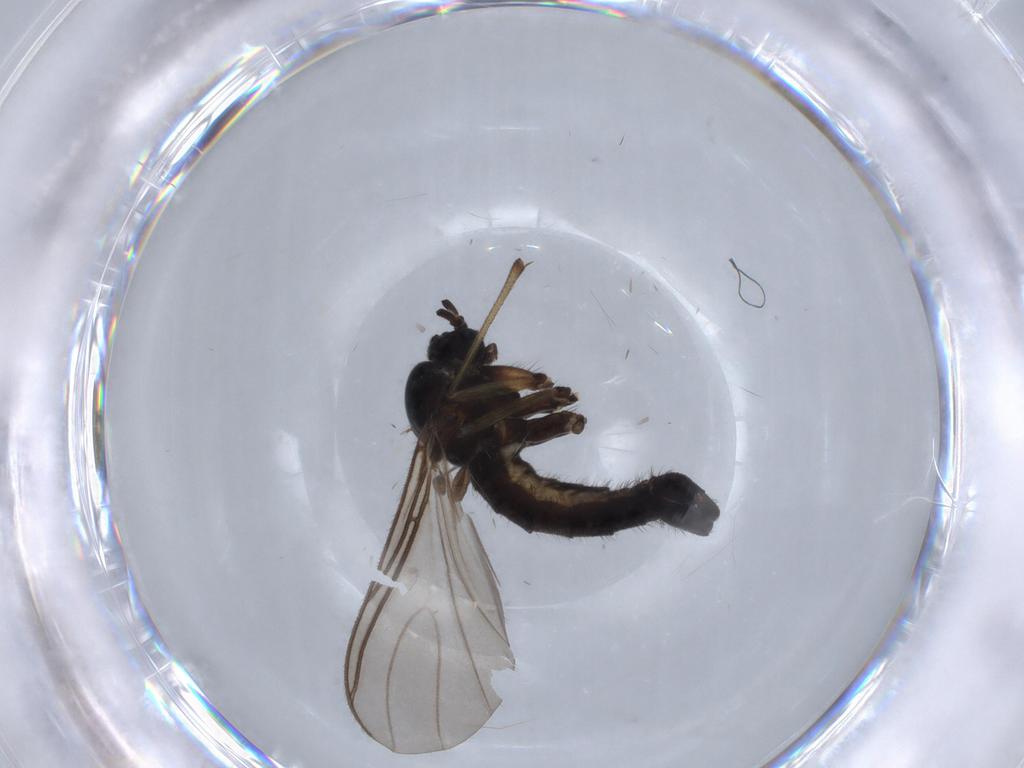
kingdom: Animalia
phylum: Arthropoda
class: Insecta
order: Diptera
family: Sciaridae
